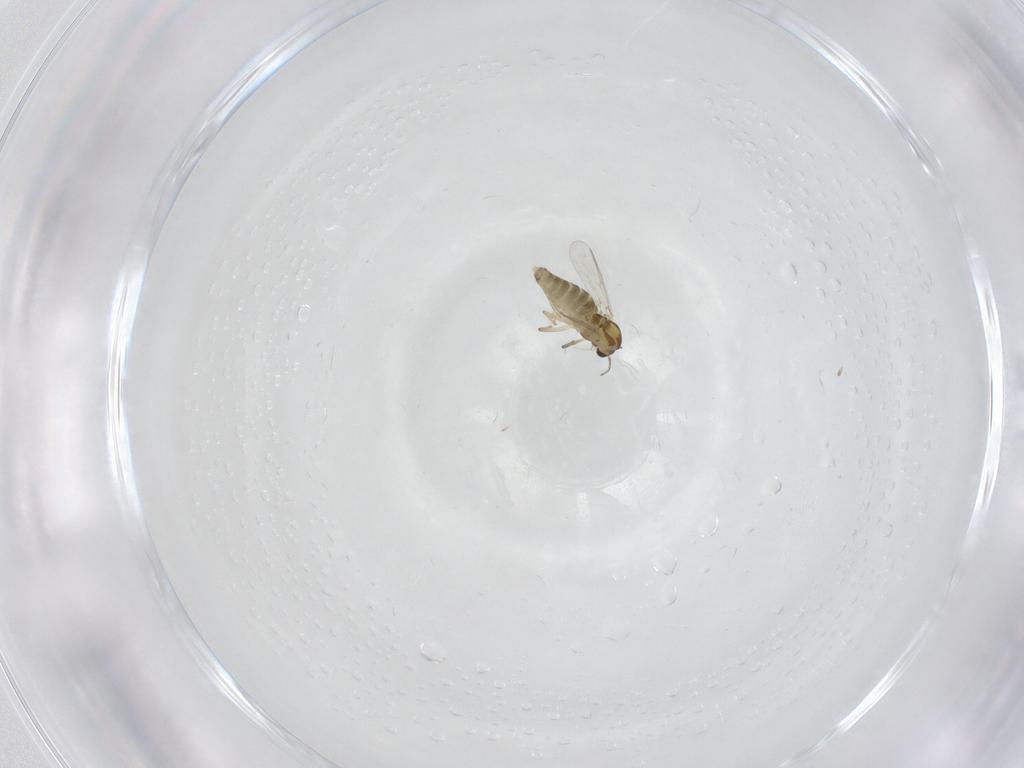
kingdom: Animalia
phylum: Arthropoda
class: Insecta
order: Diptera
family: Chironomidae
